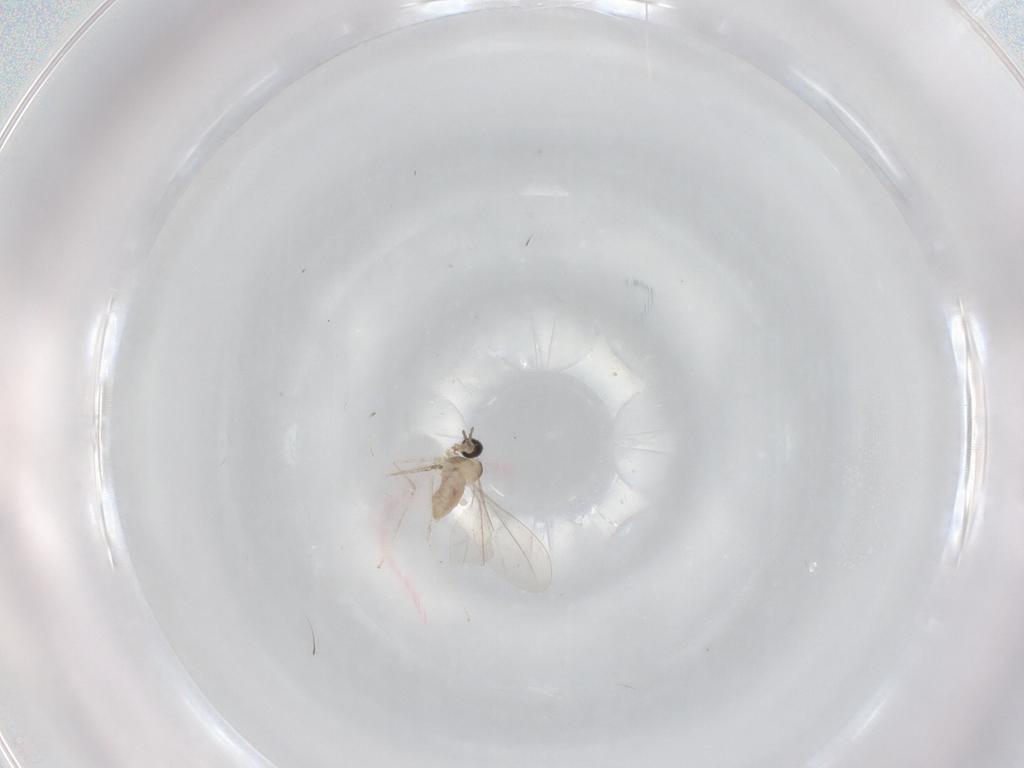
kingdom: Animalia
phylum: Arthropoda
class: Insecta
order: Diptera
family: Cecidomyiidae
